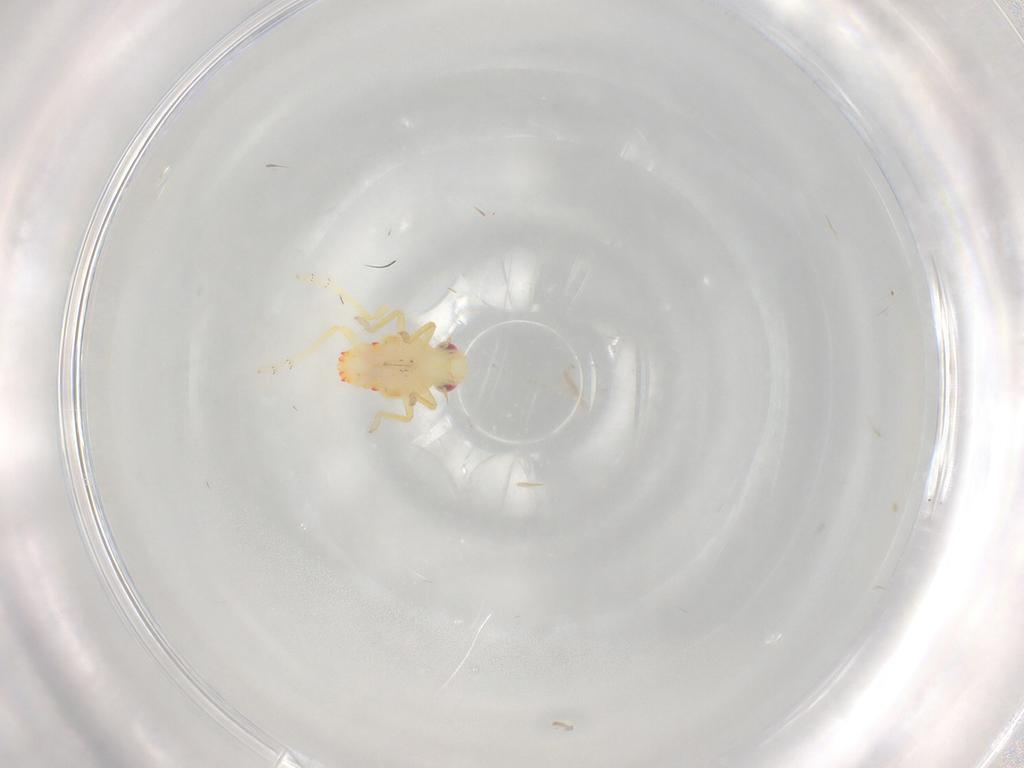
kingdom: Animalia
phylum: Arthropoda
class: Insecta
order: Hemiptera
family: Tropiduchidae
